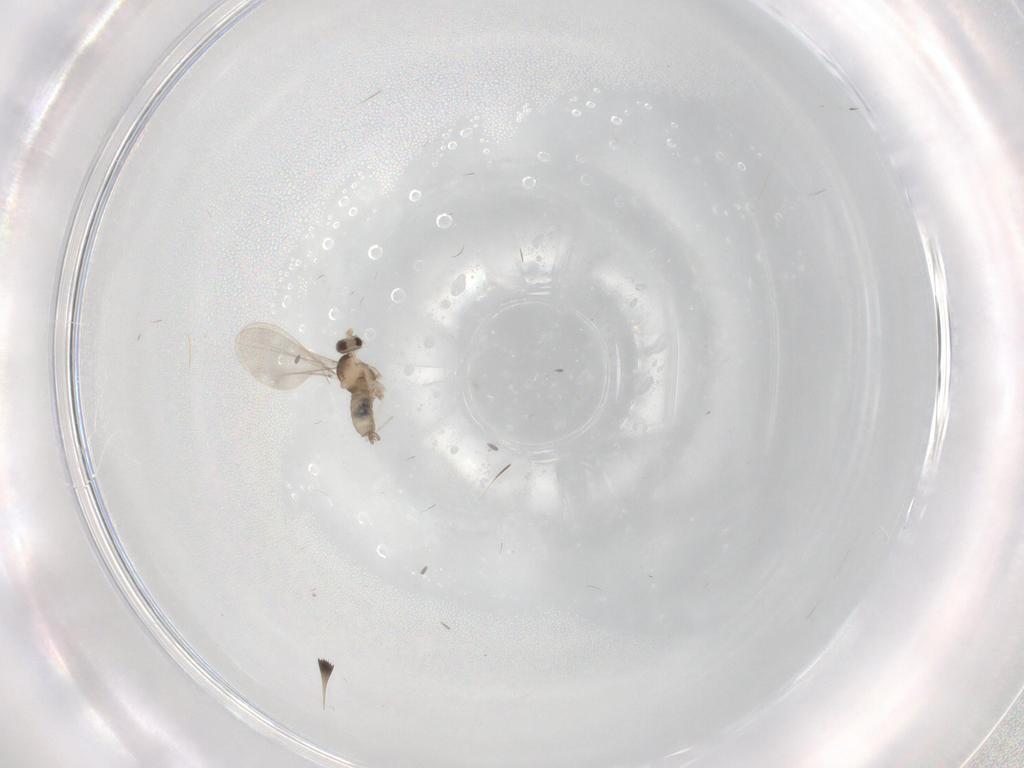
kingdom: Animalia
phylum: Arthropoda
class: Insecta
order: Diptera
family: Cecidomyiidae
